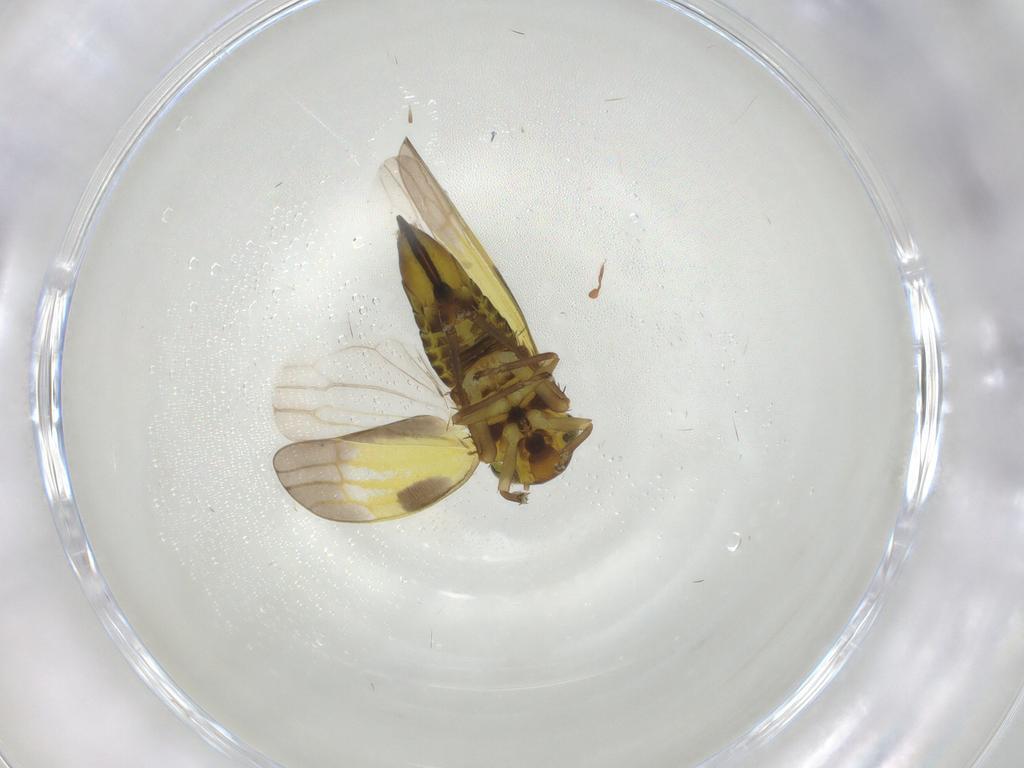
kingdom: Animalia
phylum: Arthropoda
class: Insecta
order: Hemiptera
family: Cicadellidae
